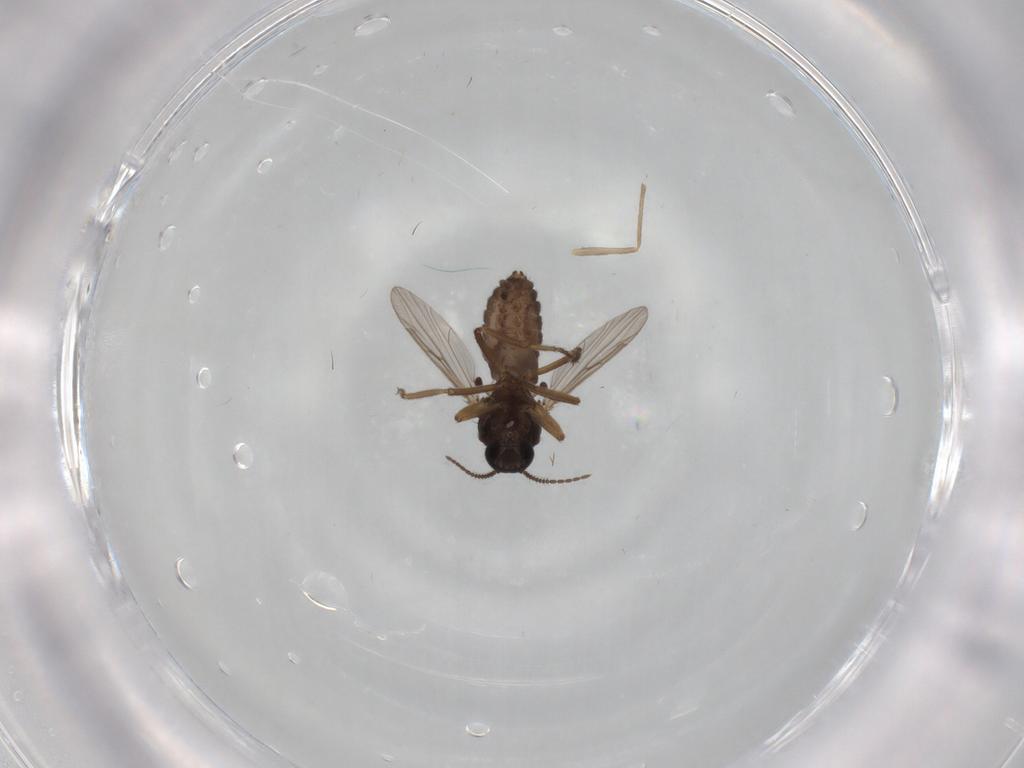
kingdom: Animalia
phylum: Arthropoda
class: Insecta
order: Diptera
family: Ceratopogonidae
